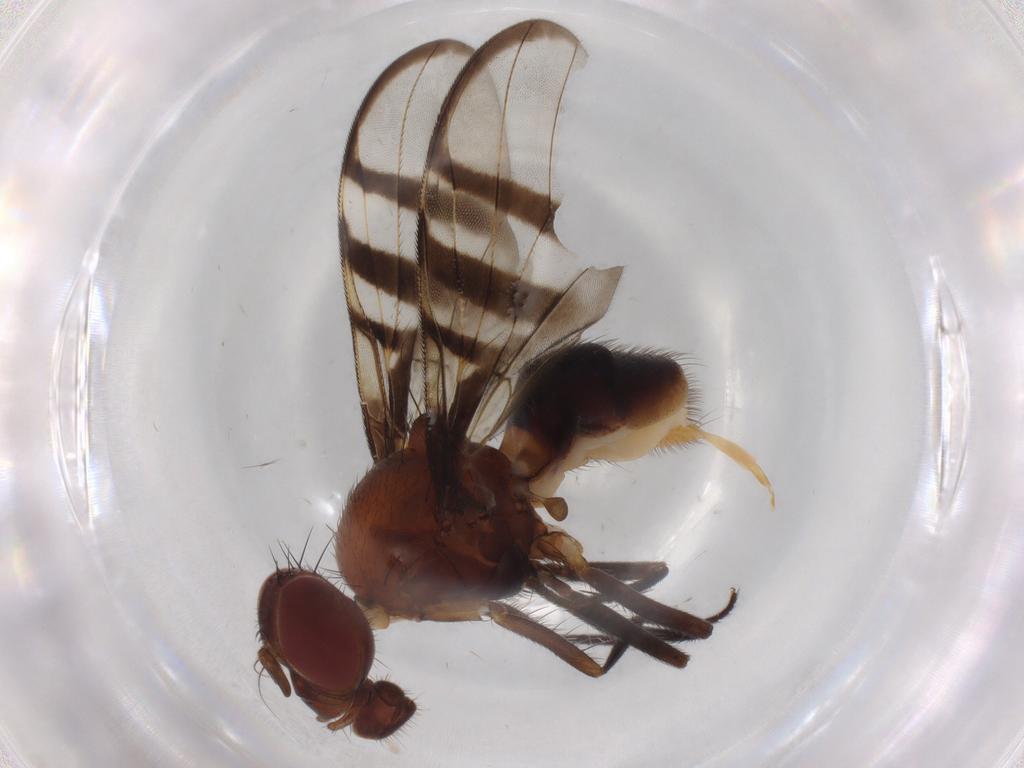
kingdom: Animalia
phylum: Arthropoda
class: Insecta
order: Diptera
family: Platystomatidae
